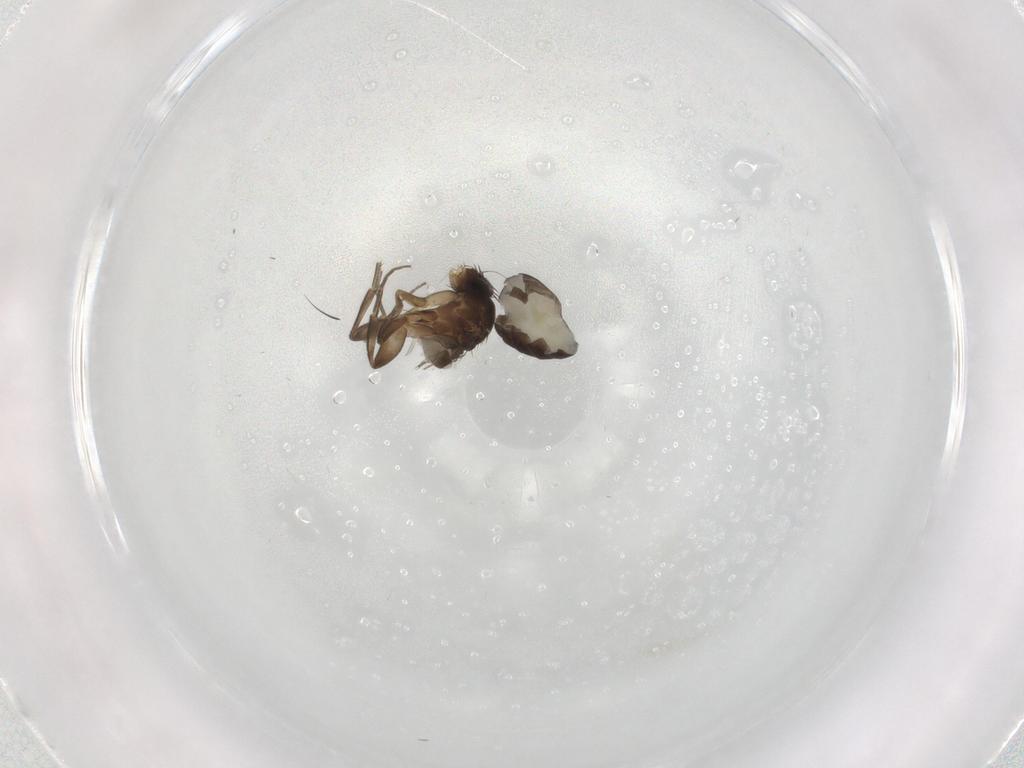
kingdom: Animalia
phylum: Arthropoda
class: Insecta
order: Diptera
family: Phoridae
